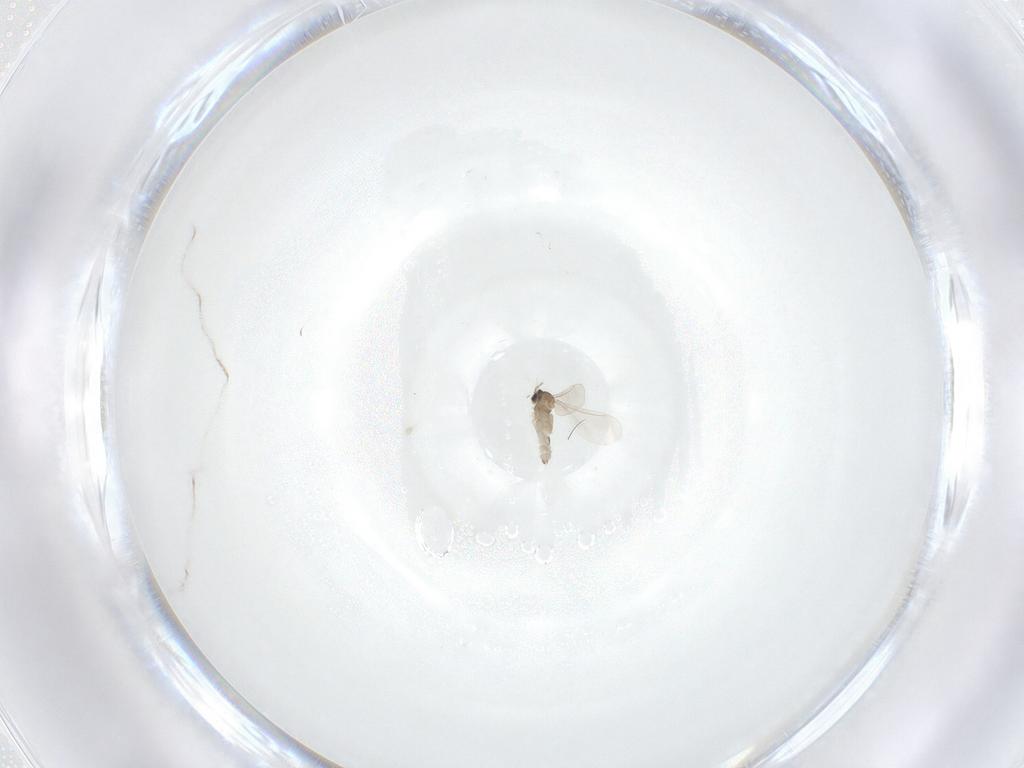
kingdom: Animalia
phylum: Arthropoda
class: Insecta
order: Diptera
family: Cecidomyiidae
